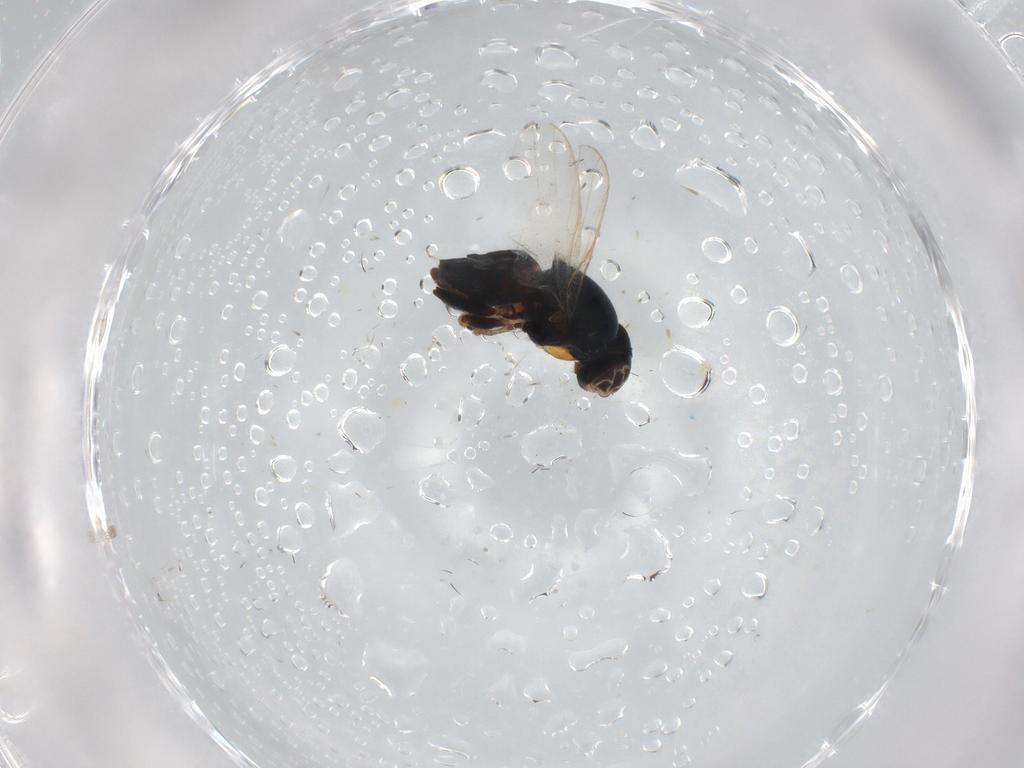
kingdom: Animalia
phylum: Arthropoda
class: Insecta
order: Diptera
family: Chloropidae
